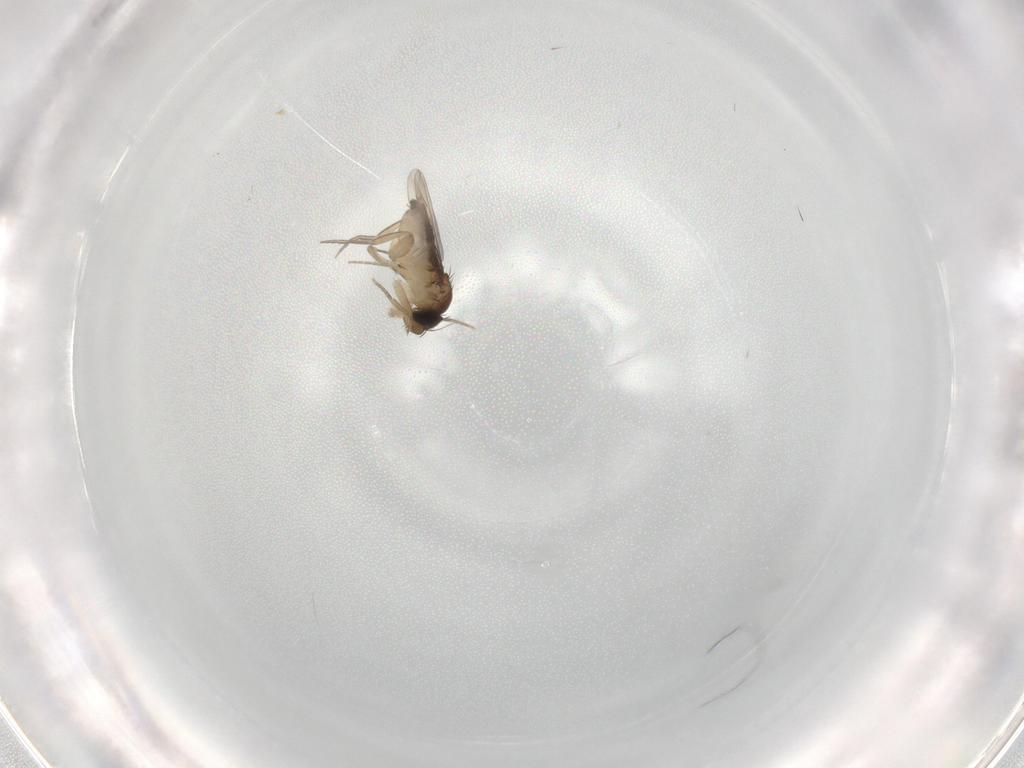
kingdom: Animalia
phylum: Arthropoda
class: Insecta
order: Diptera
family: Phoridae
